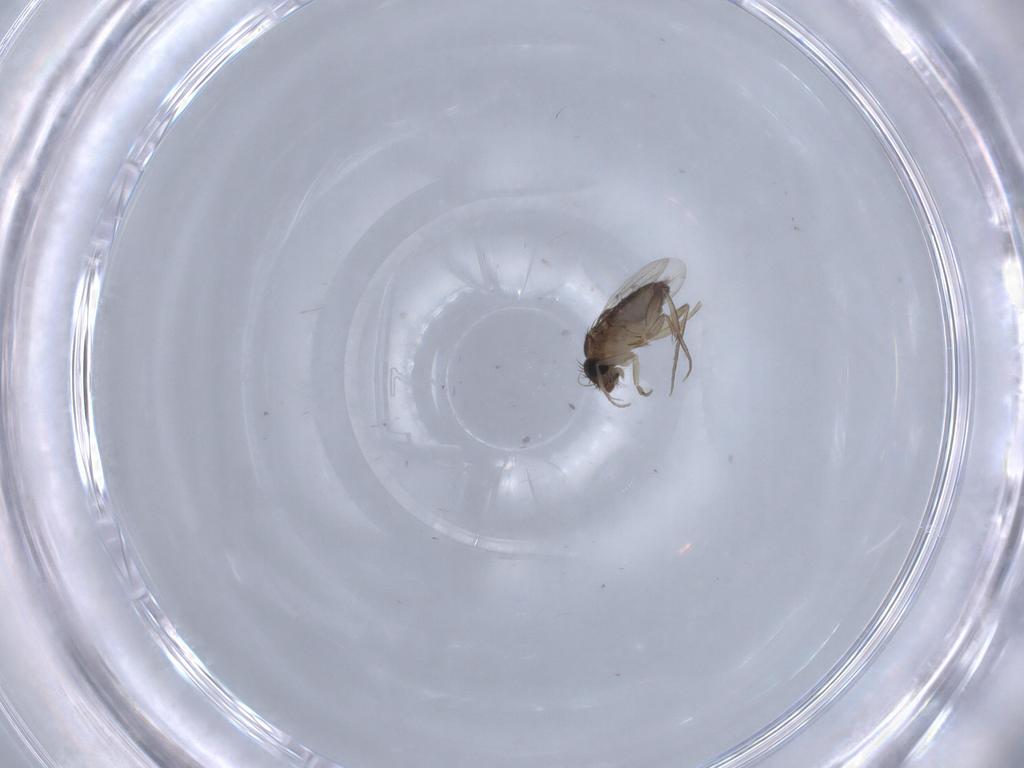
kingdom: Animalia
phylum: Arthropoda
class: Insecta
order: Diptera
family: Phoridae
